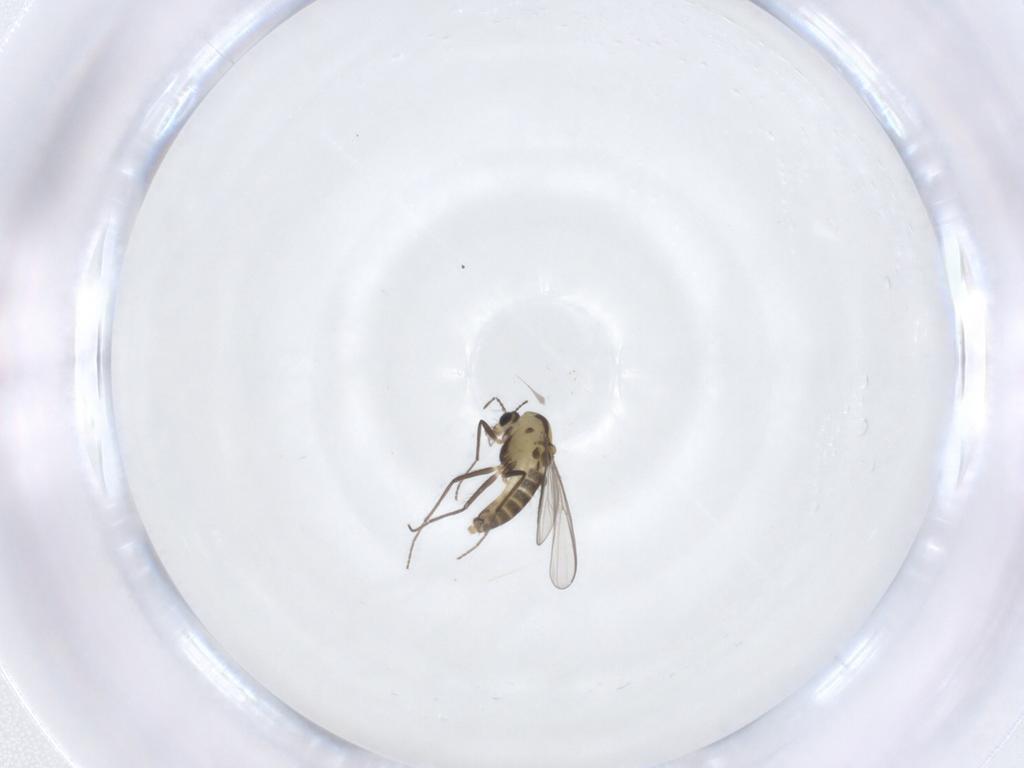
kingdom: Animalia
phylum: Arthropoda
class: Insecta
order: Diptera
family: Chironomidae
